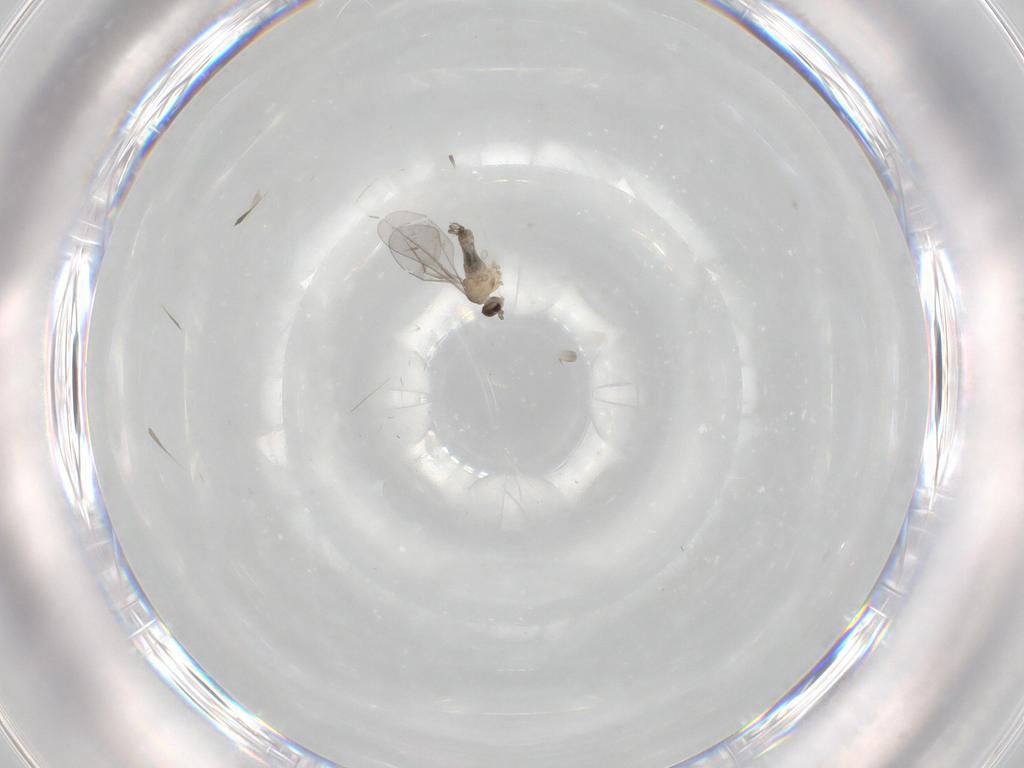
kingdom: Animalia
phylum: Arthropoda
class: Insecta
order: Diptera
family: Cecidomyiidae
